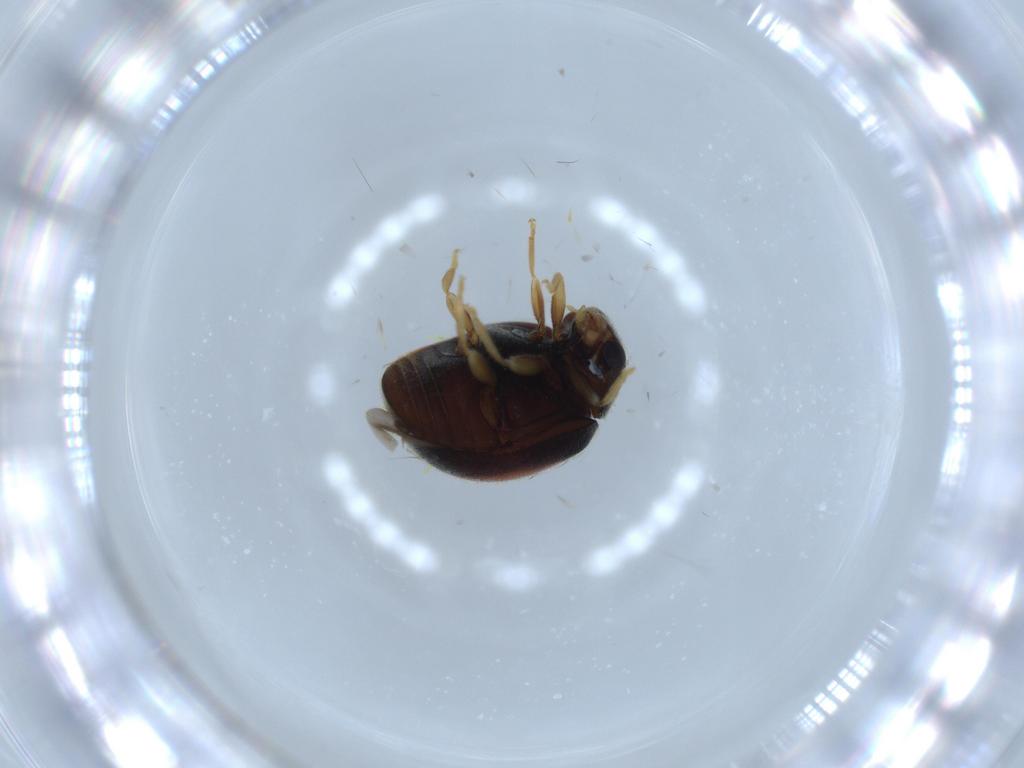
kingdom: Animalia
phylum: Arthropoda
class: Insecta
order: Coleoptera
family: Coccinellidae
